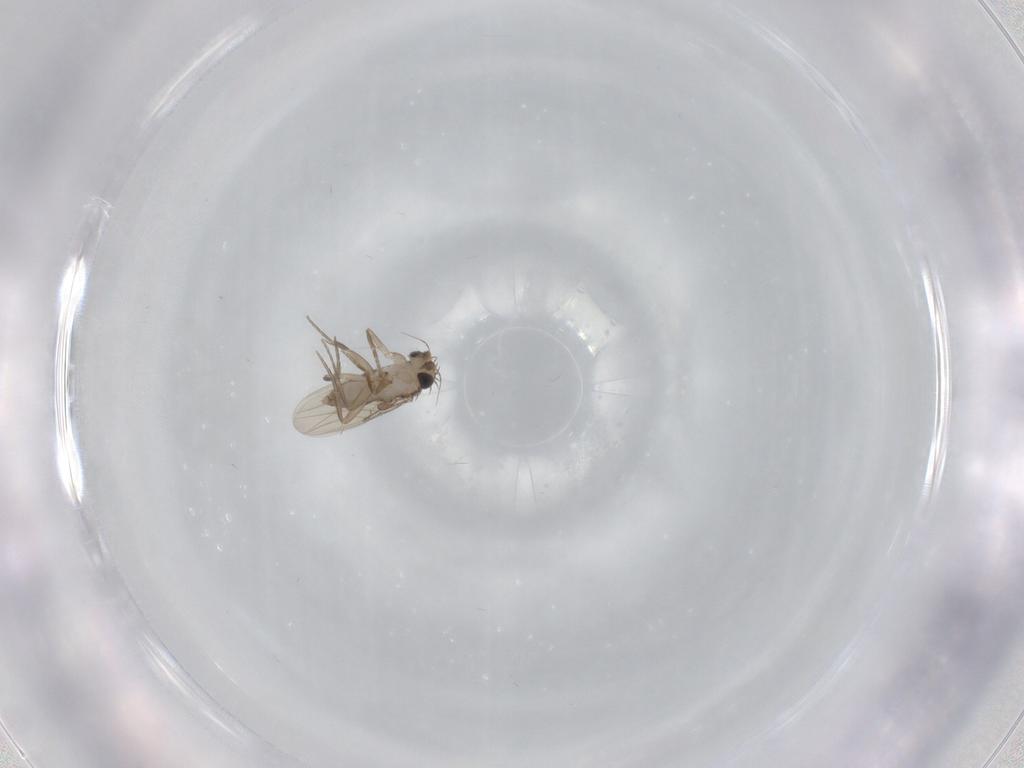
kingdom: Animalia
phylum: Arthropoda
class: Insecta
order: Diptera
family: Phoridae
